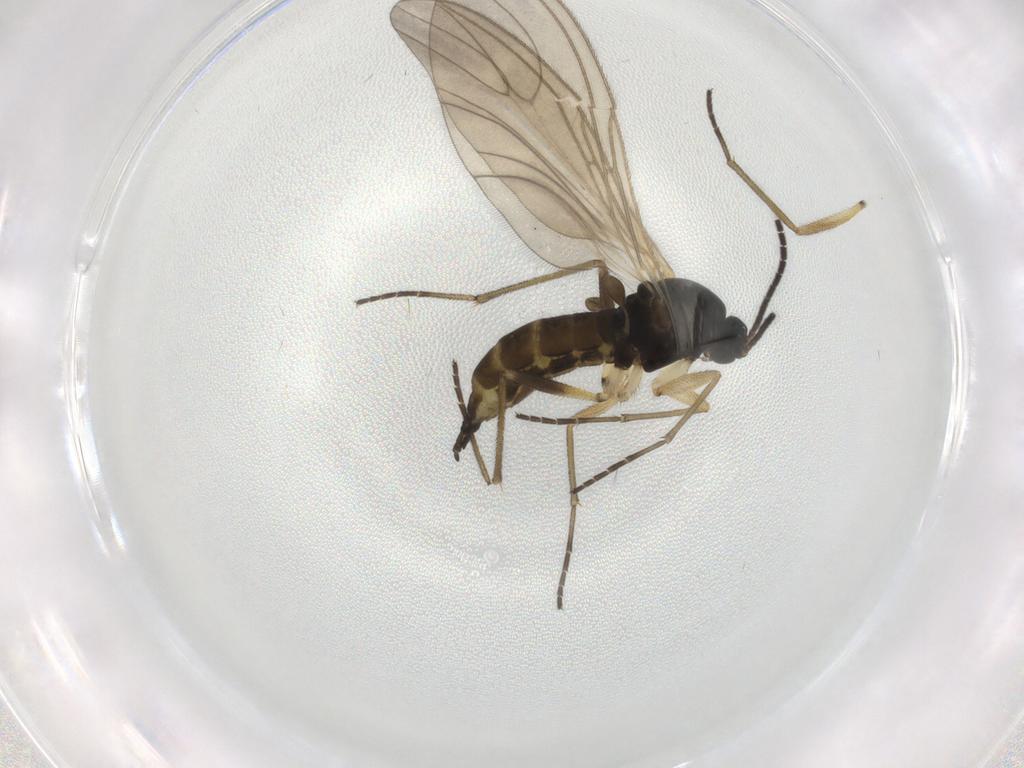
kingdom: Animalia
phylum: Arthropoda
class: Insecta
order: Diptera
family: Sciaridae
